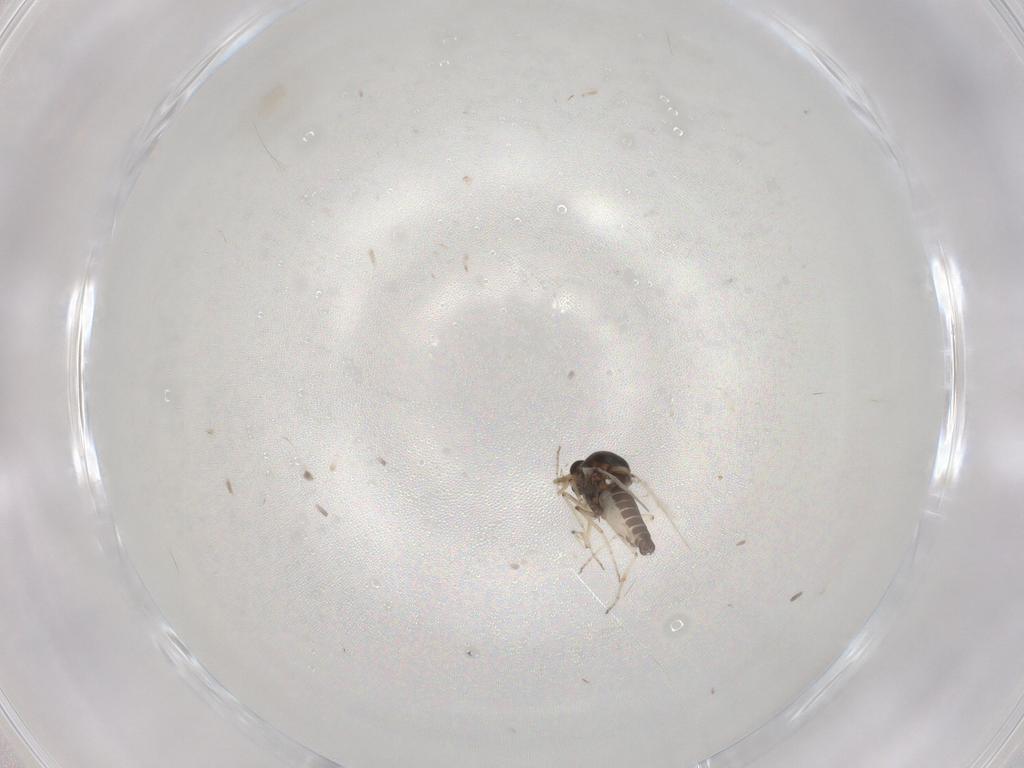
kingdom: Animalia
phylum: Arthropoda
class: Insecta
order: Diptera
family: Ceratopogonidae
